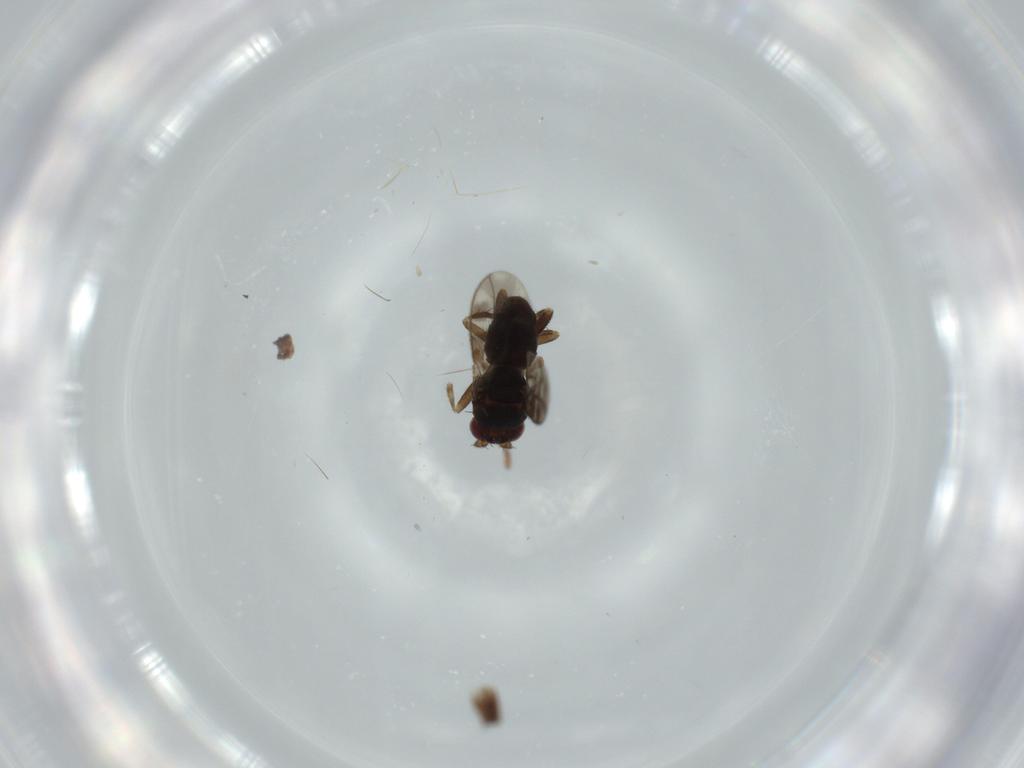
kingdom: Animalia
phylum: Arthropoda
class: Insecta
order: Diptera
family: Sphaeroceridae
